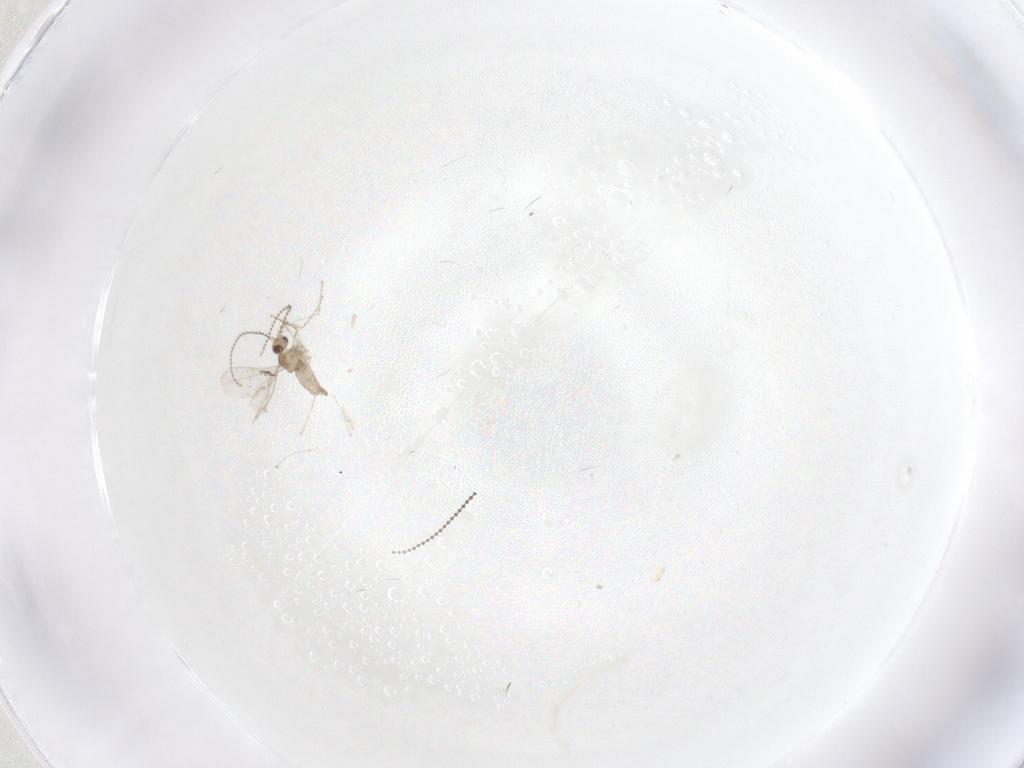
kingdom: Animalia
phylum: Arthropoda
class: Insecta
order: Diptera
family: Cecidomyiidae
